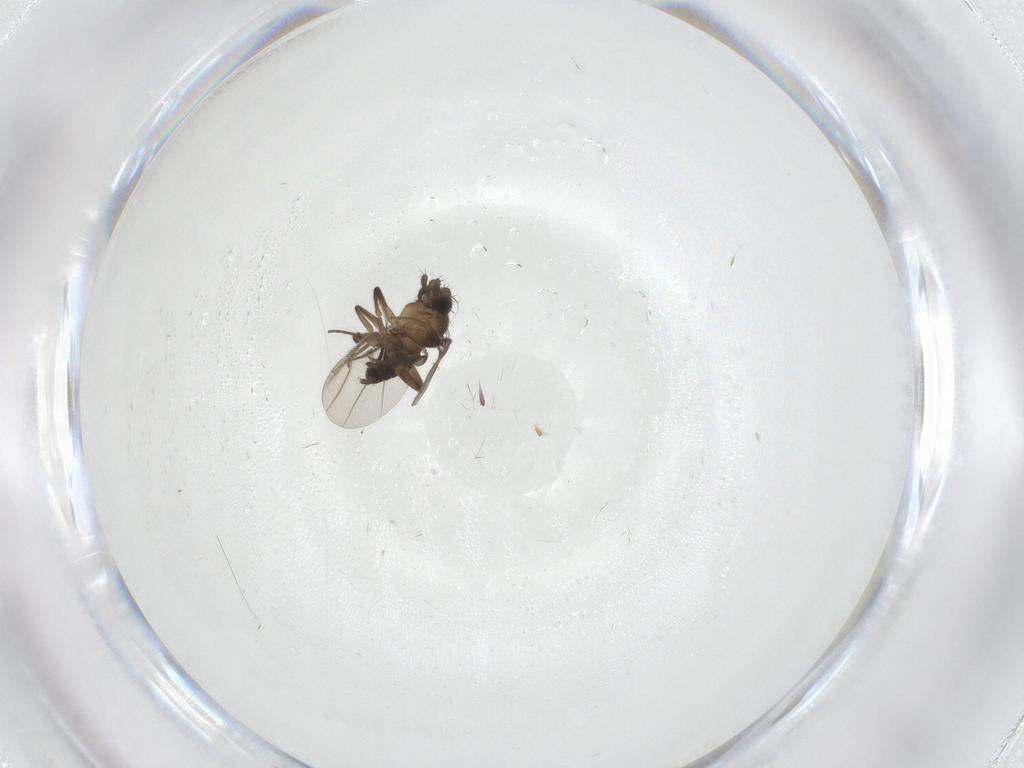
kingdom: Animalia
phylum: Arthropoda
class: Insecta
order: Diptera
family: Phoridae
